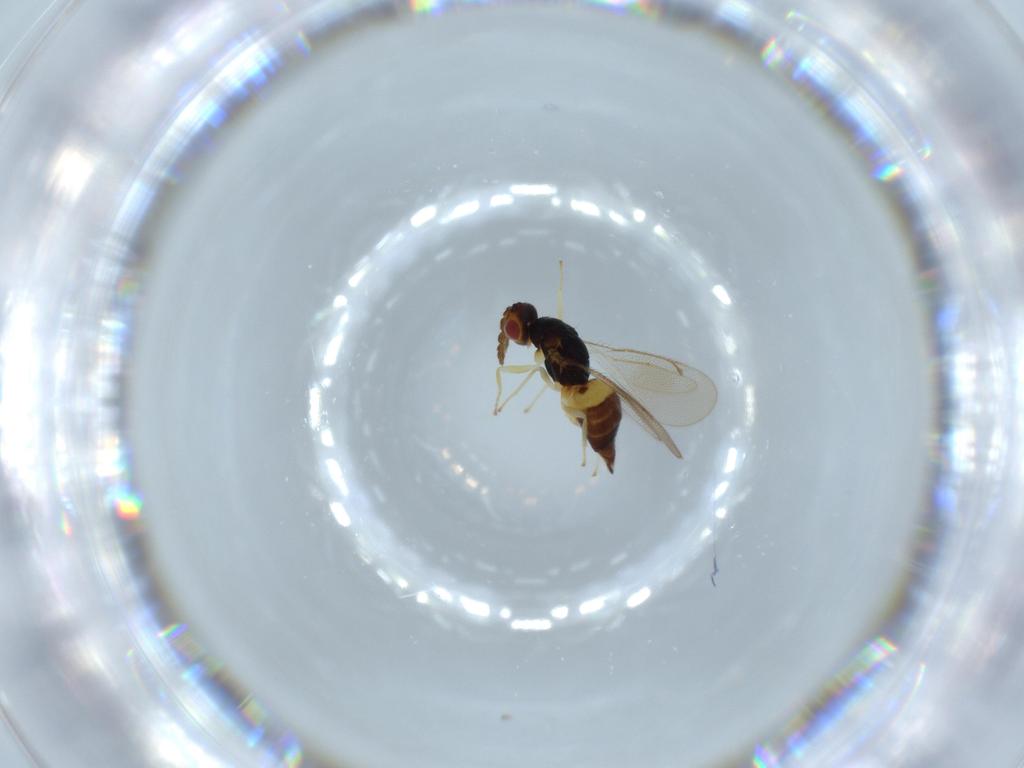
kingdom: Animalia
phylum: Arthropoda
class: Insecta
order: Hymenoptera
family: Eulophidae
